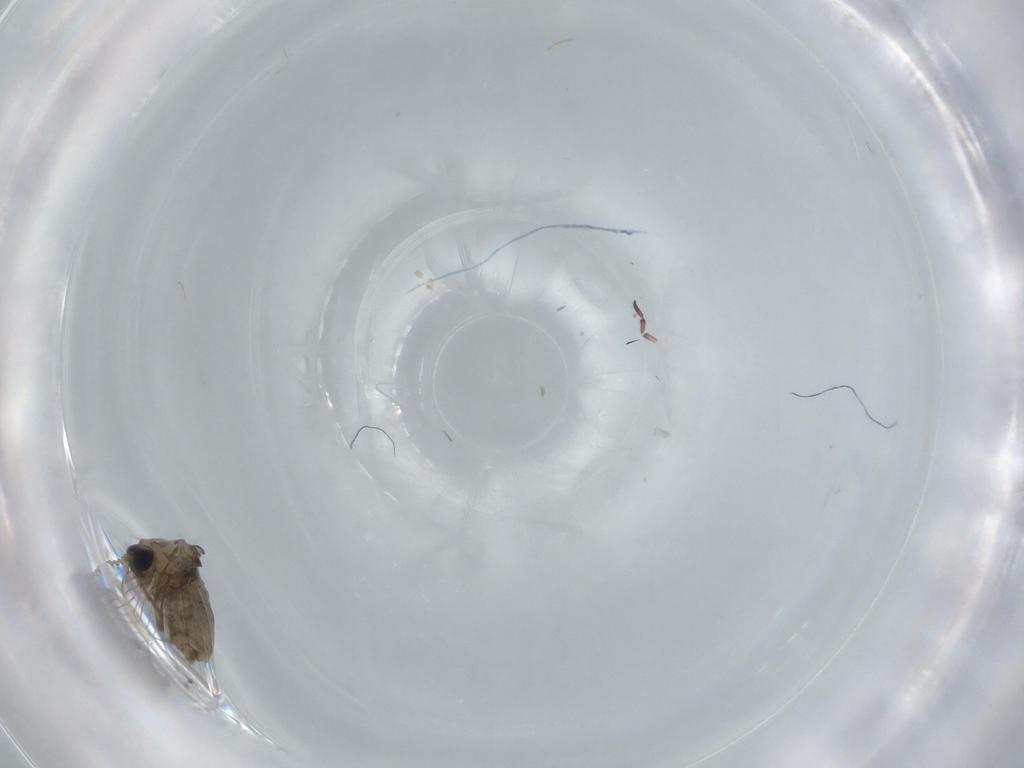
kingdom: Animalia
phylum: Arthropoda
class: Insecta
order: Diptera
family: Psychodidae
